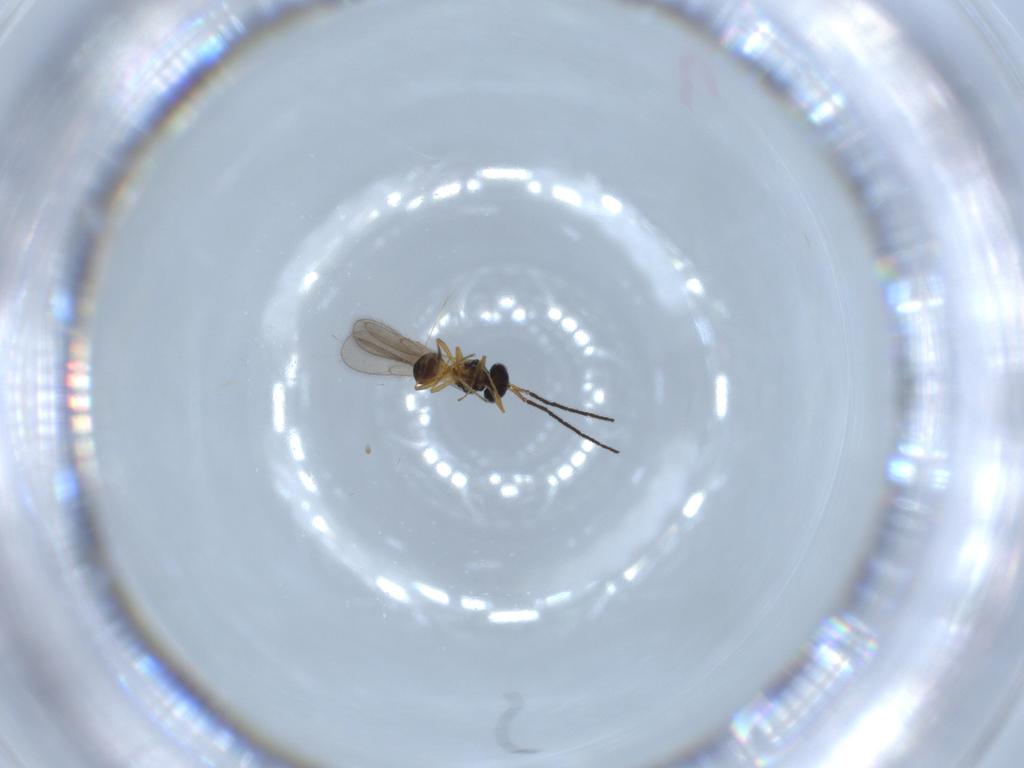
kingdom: Animalia
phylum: Arthropoda
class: Insecta
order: Hymenoptera
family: Scelionidae
